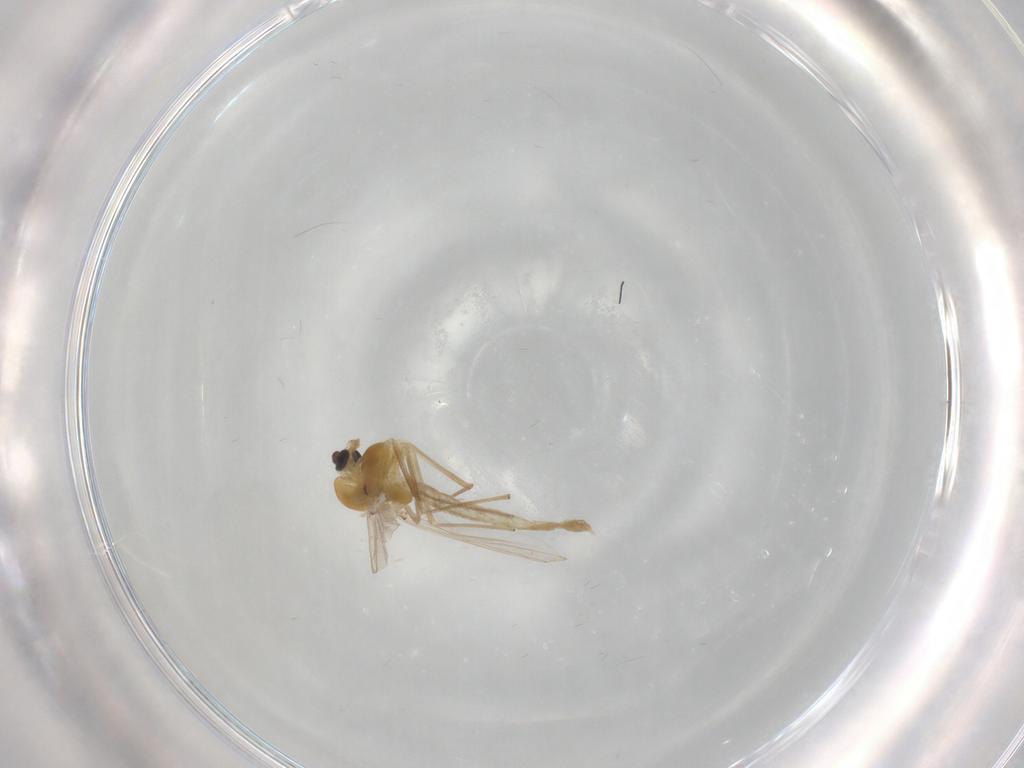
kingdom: Animalia
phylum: Arthropoda
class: Insecta
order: Diptera
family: Chironomidae
